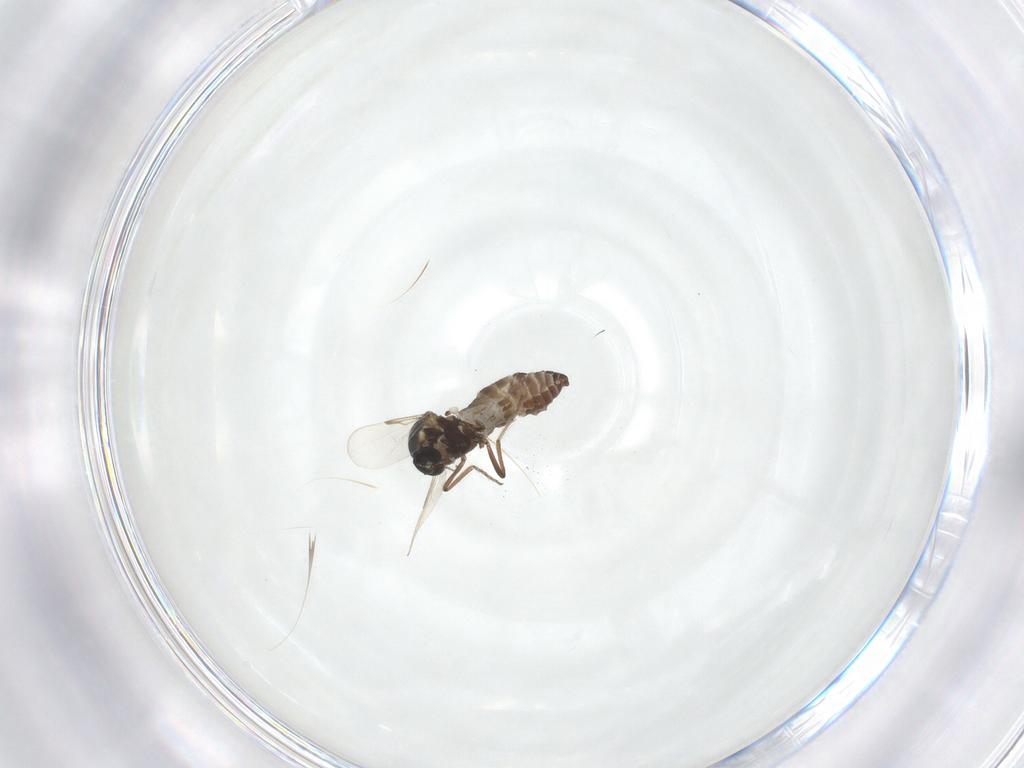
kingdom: Animalia
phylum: Arthropoda
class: Insecta
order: Diptera
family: Ceratopogonidae
